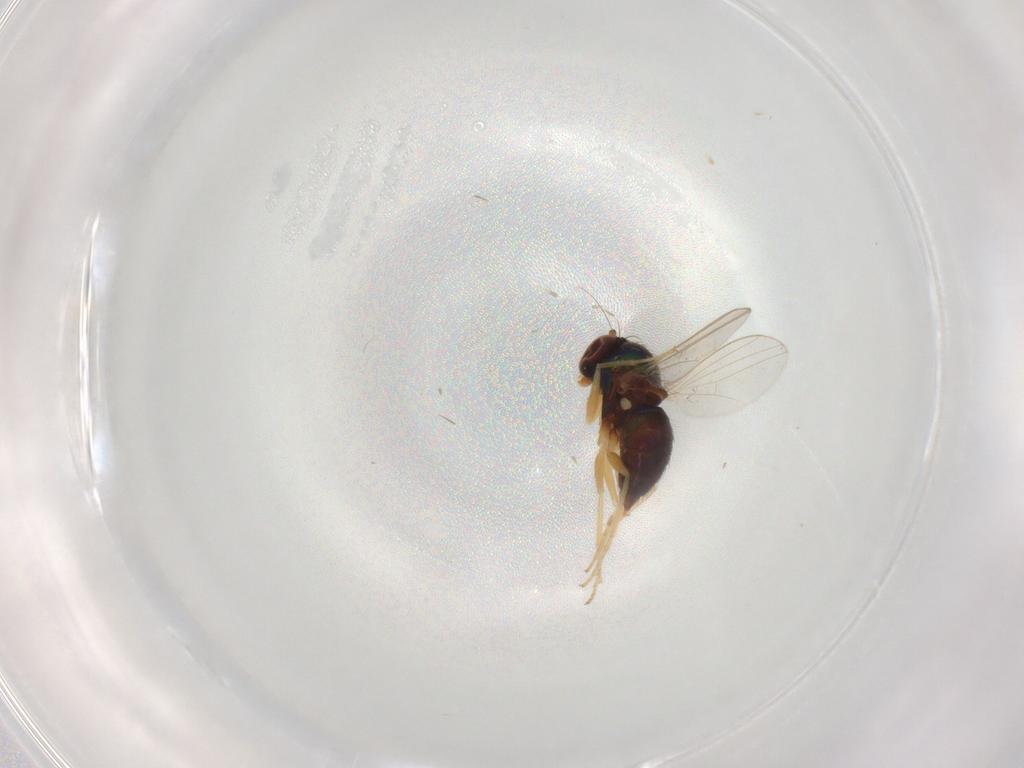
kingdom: Animalia
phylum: Arthropoda
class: Insecta
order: Diptera
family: Dolichopodidae
